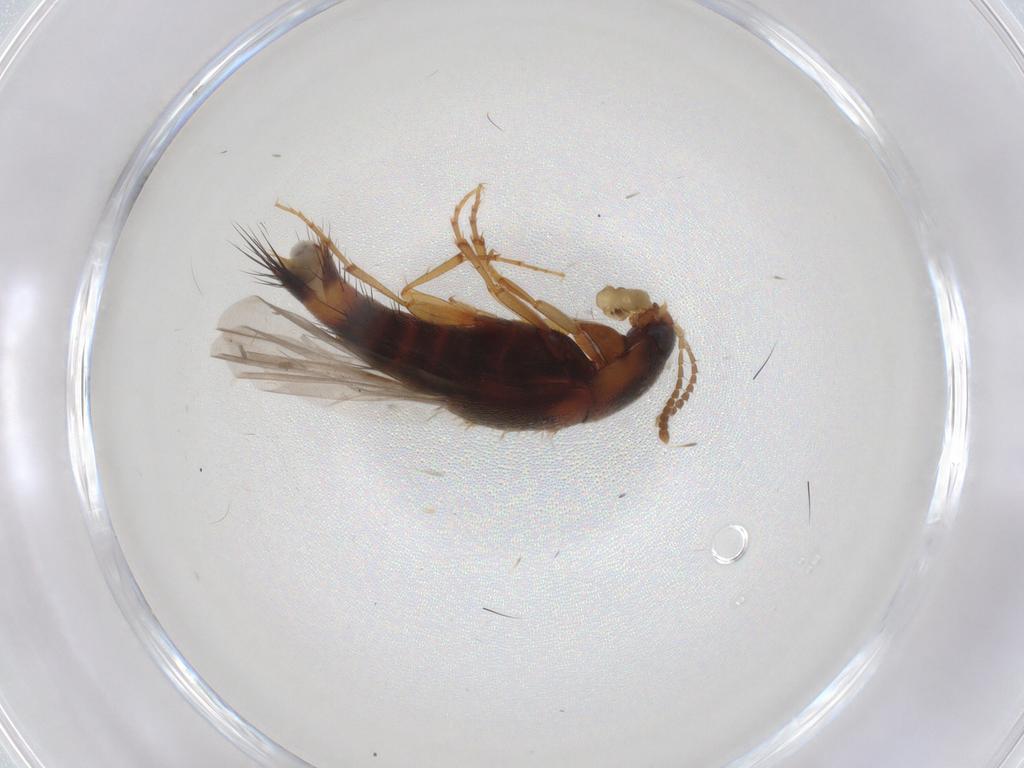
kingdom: Animalia
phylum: Arthropoda
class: Insecta
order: Coleoptera
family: Staphylinidae
